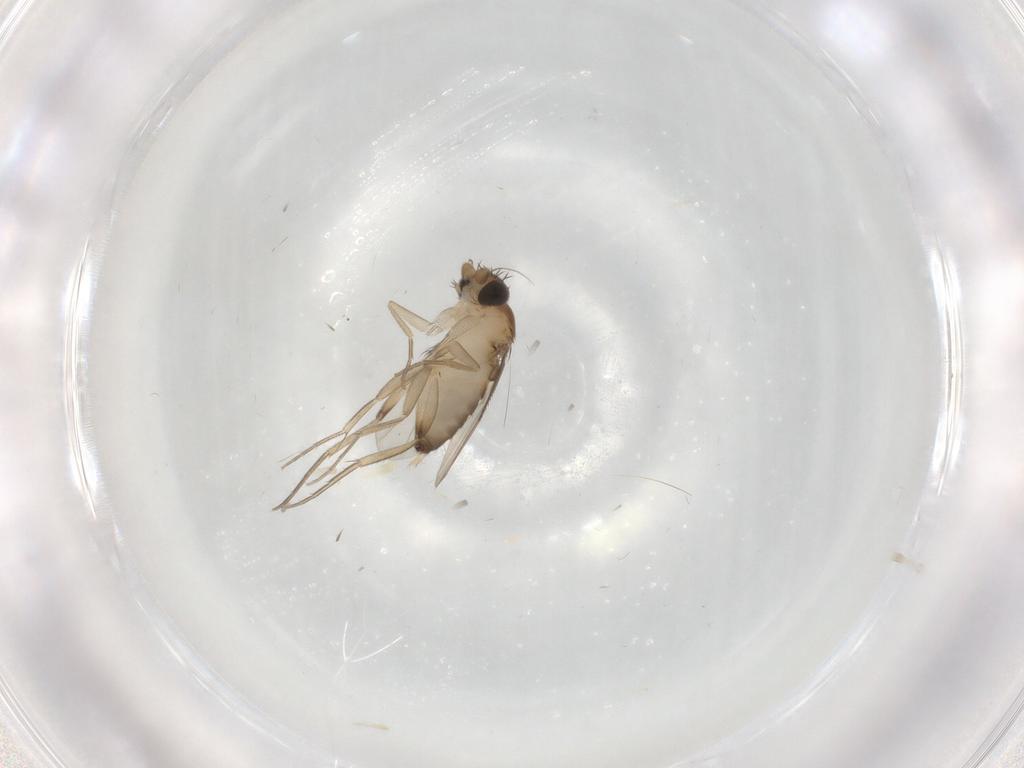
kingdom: Animalia
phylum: Arthropoda
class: Insecta
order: Diptera
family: Phoridae
